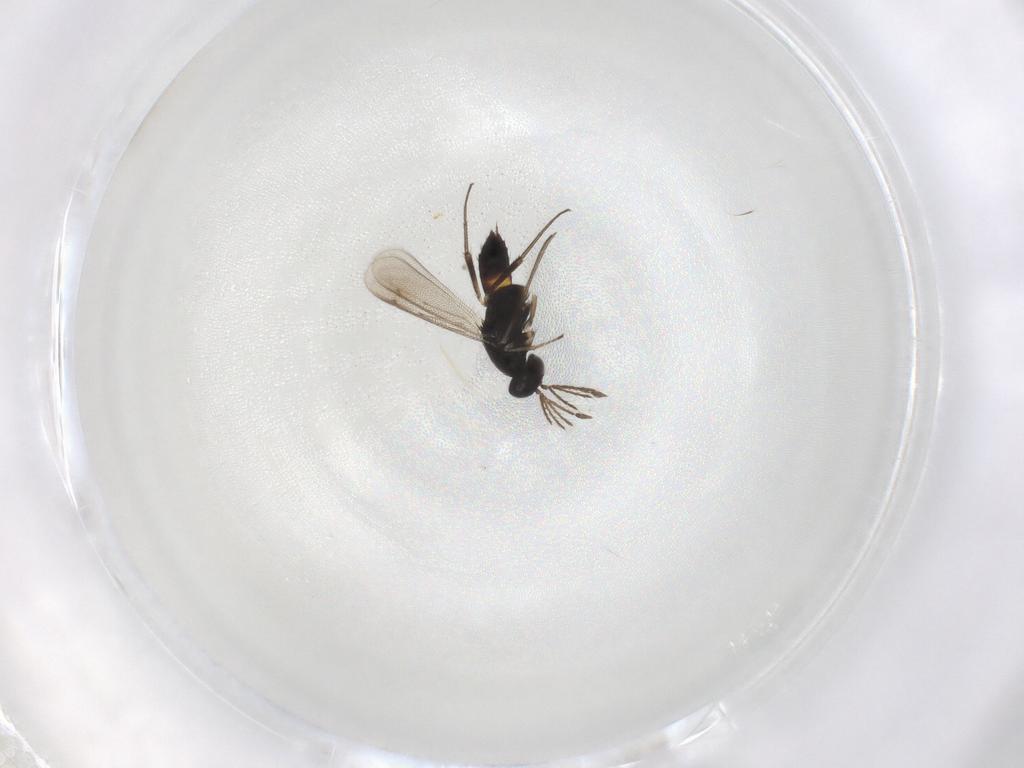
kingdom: Animalia
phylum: Arthropoda
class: Insecta
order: Hymenoptera
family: Eulophidae
